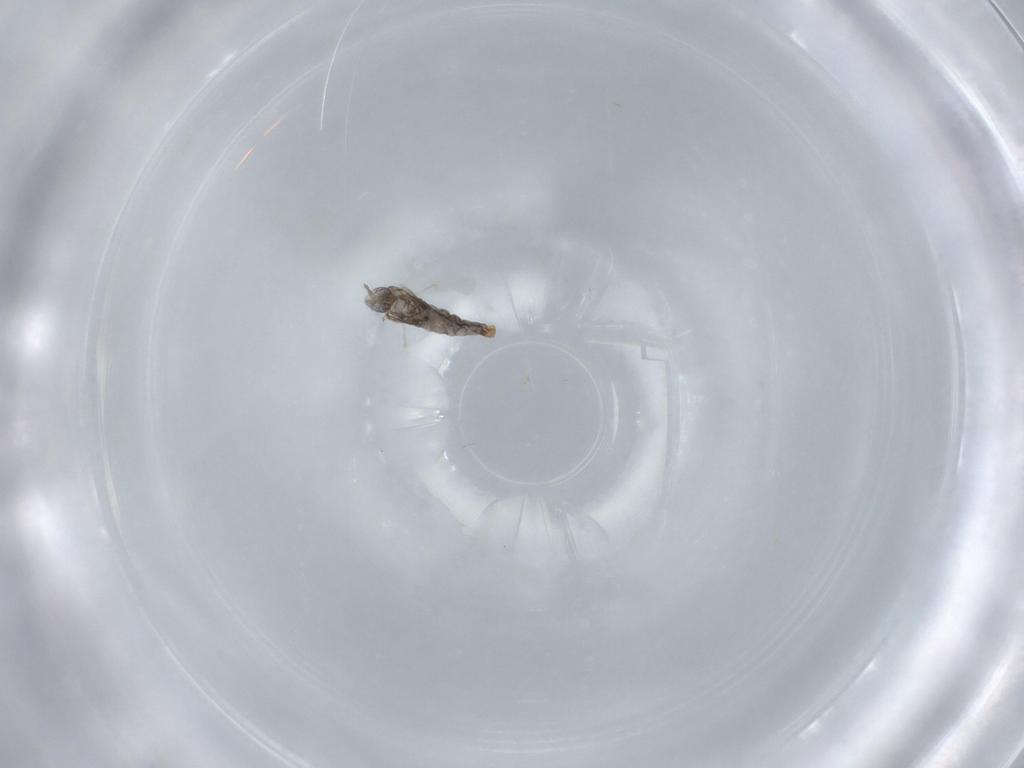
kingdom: Animalia
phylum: Arthropoda
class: Insecta
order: Diptera
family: Cecidomyiidae
